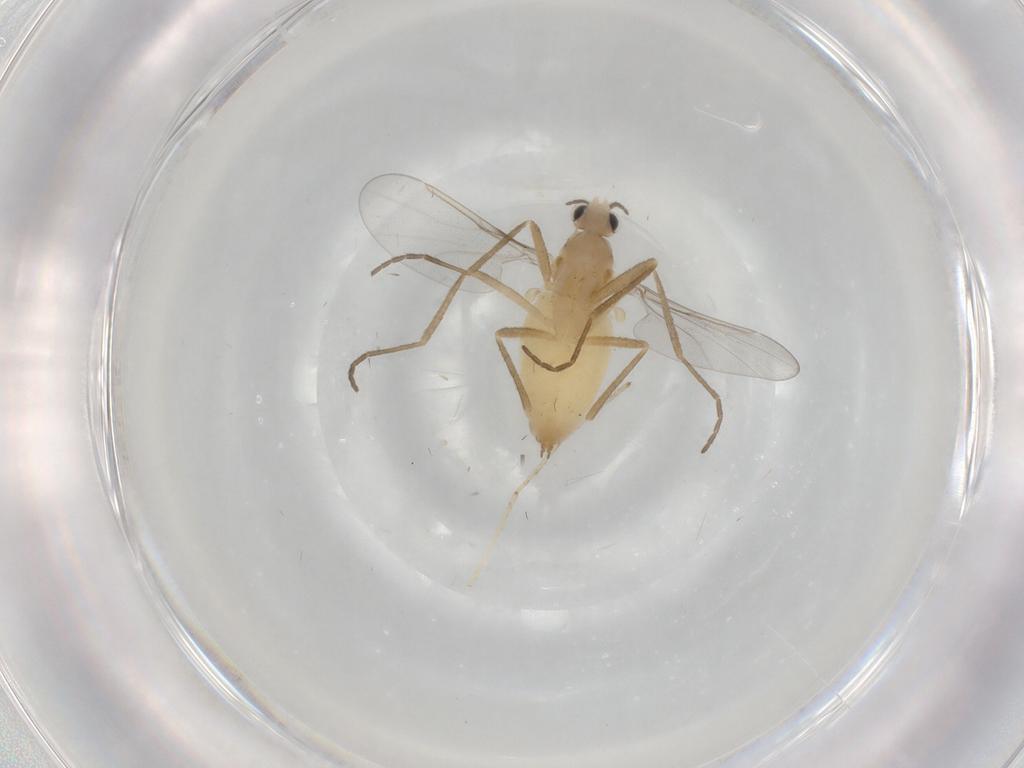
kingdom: Animalia
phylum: Arthropoda
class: Insecta
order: Diptera
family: Cecidomyiidae
